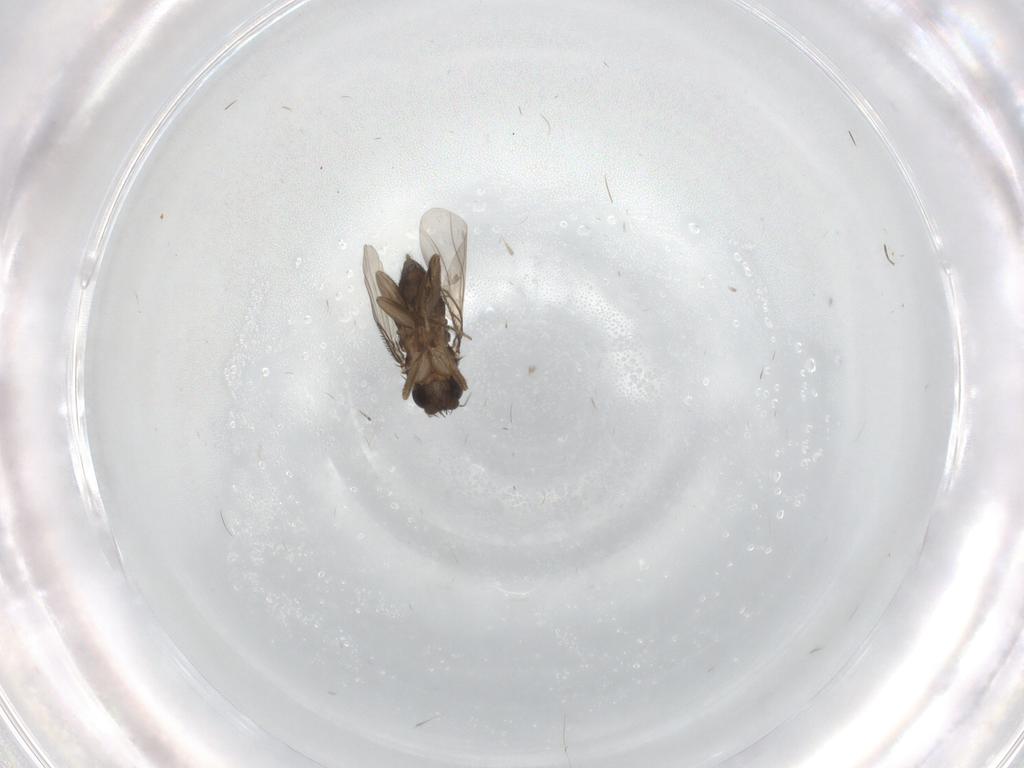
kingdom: Animalia
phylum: Arthropoda
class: Insecta
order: Diptera
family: Phoridae
